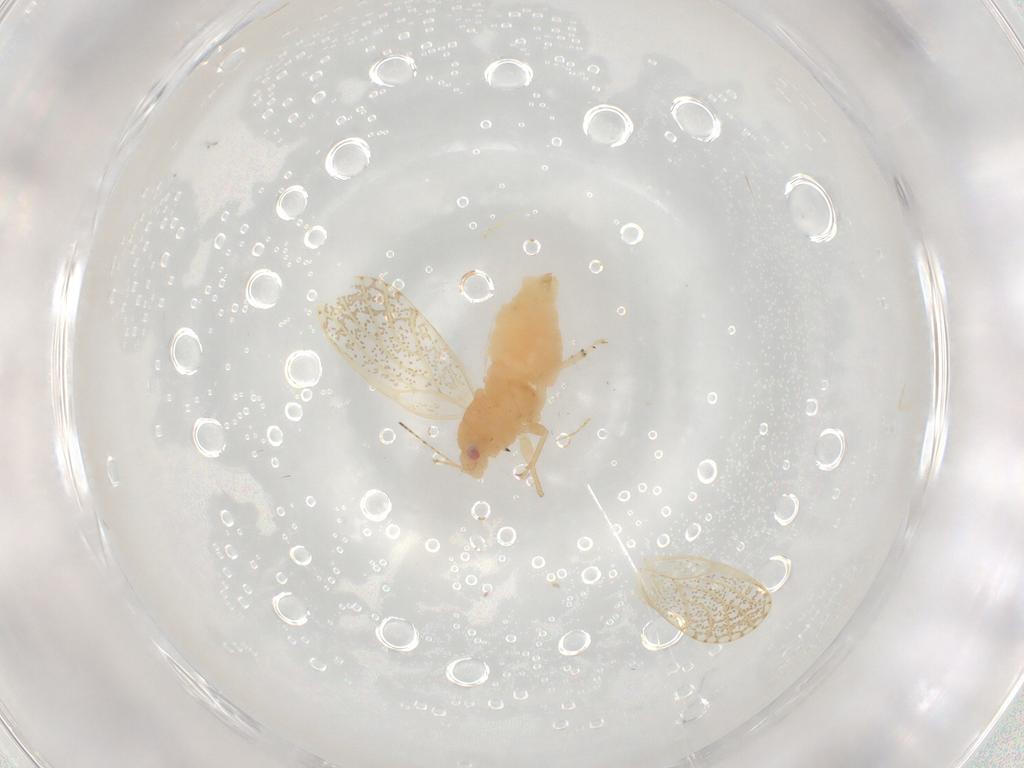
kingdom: Animalia
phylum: Arthropoda
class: Insecta
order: Hemiptera
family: Psyllidae
